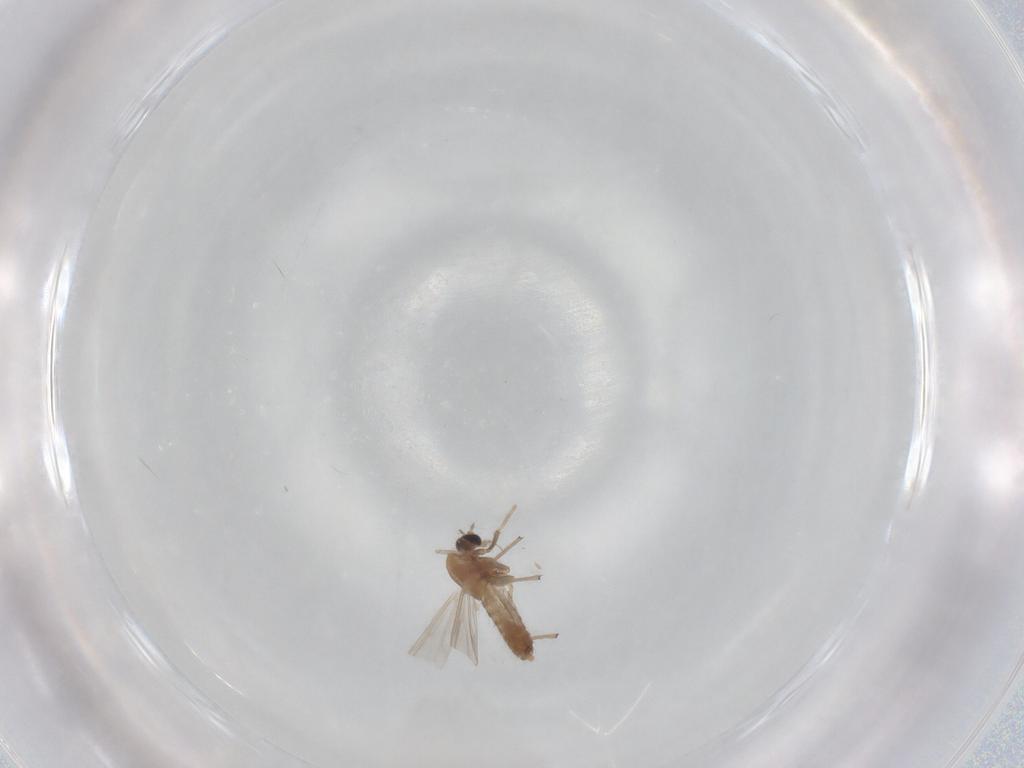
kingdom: Animalia
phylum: Arthropoda
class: Insecta
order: Diptera
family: Chironomidae
